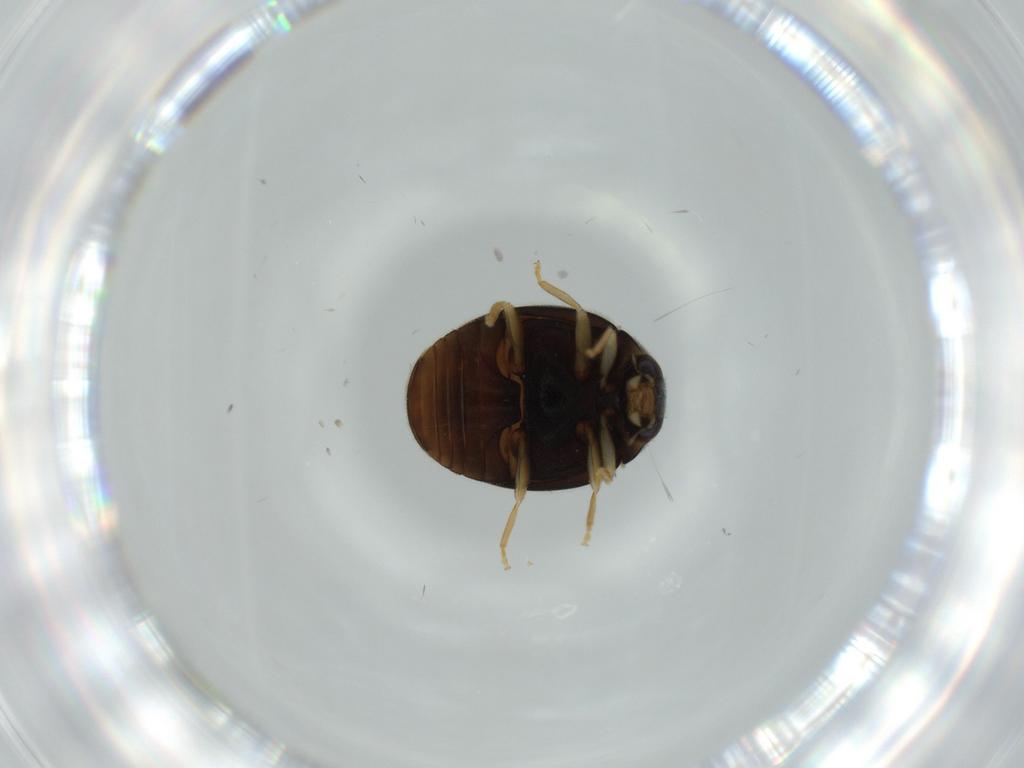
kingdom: Animalia
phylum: Arthropoda
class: Insecta
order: Coleoptera
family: Coccinellidae
